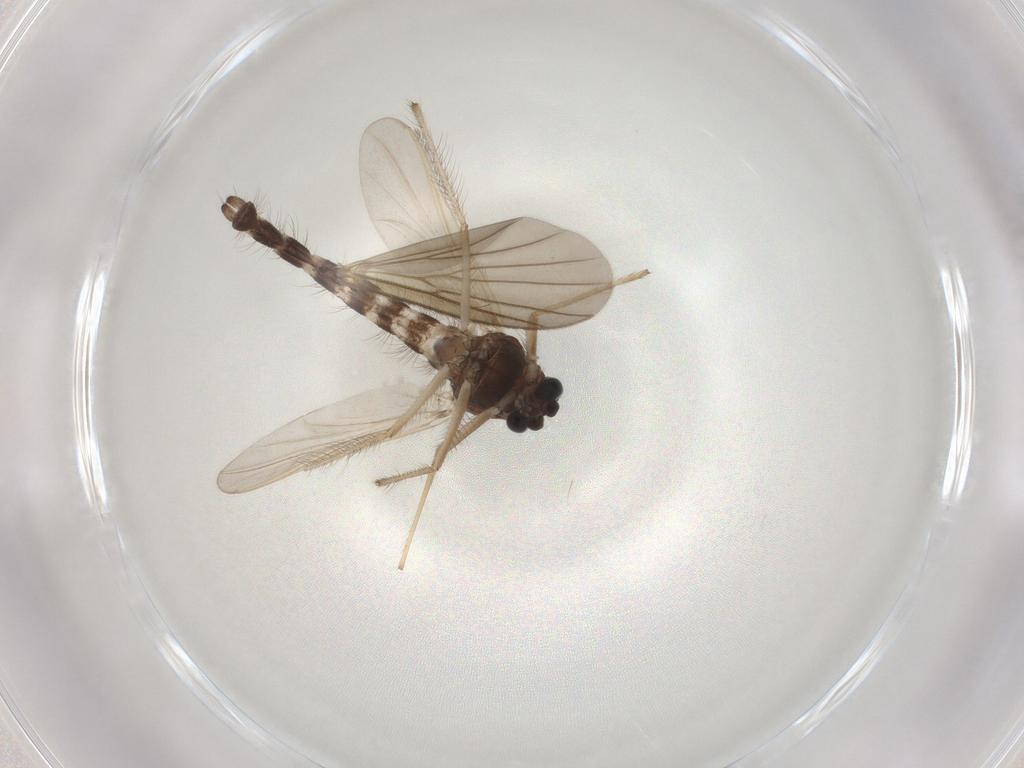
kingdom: Animalia
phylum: Arthropoda
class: Insecta
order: Diptera
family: Chironomidae
